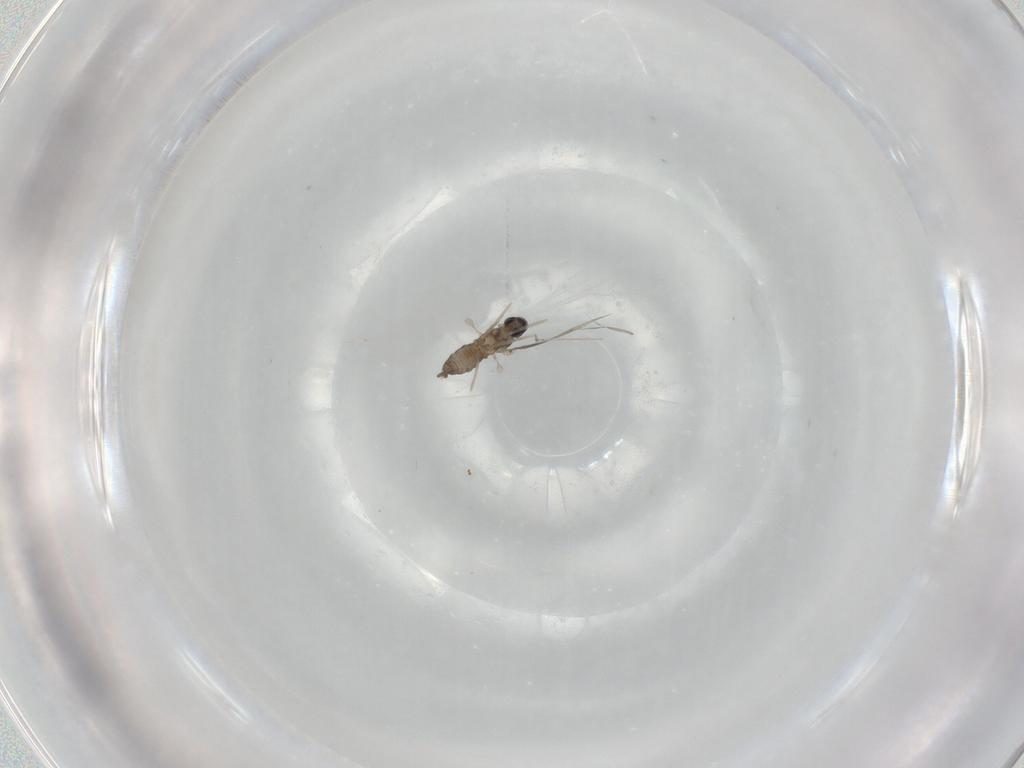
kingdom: Animalia
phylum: Arthropoda
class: Insecta
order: Diptera
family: Cecidomyiidae
